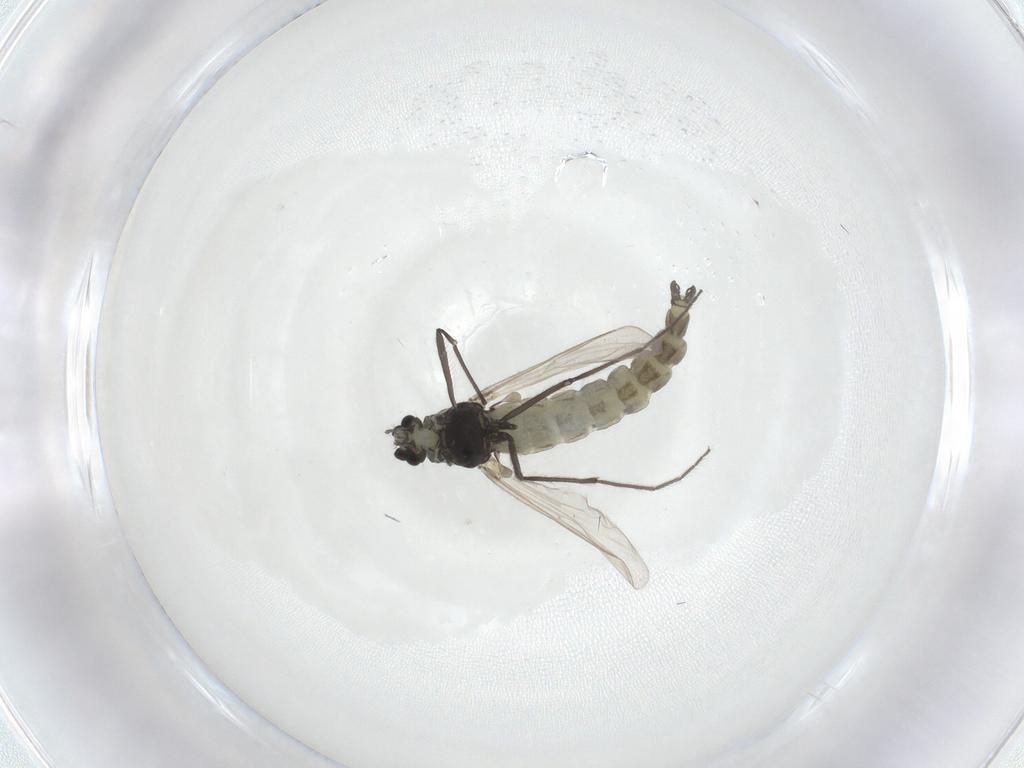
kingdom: Animalia
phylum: Arthropoda
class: Insecta
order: Diptera
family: Chironomidae
